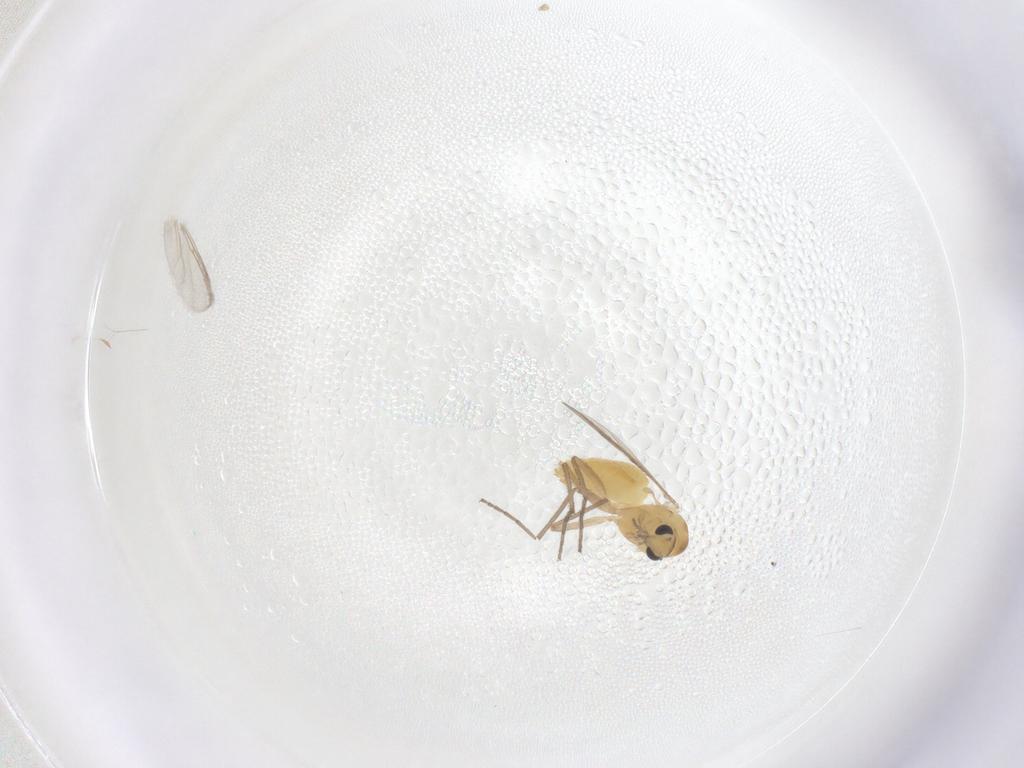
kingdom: Animalia
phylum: Arthropoda
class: Insecta
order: Diptera
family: Chironomidae
